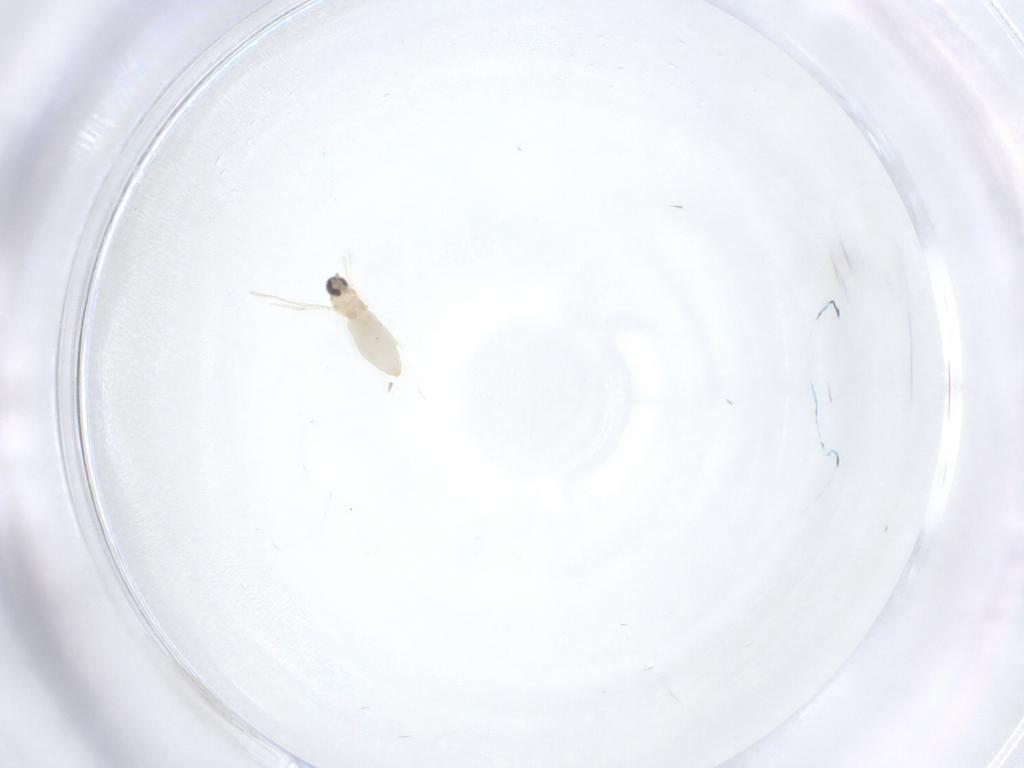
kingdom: Animalia
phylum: Arthropoda
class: Insecta
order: Diptera
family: Cecidomyiidae
